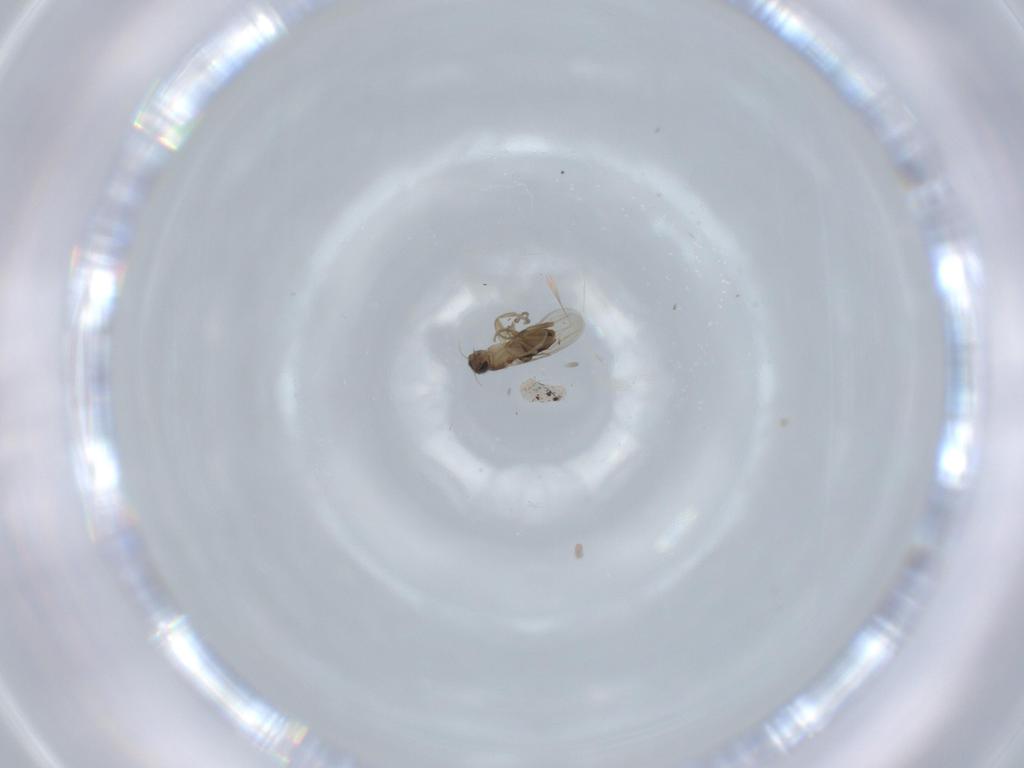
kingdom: Animalia
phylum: Arthropoda
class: Insecta
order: Diptera
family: Phoridae
